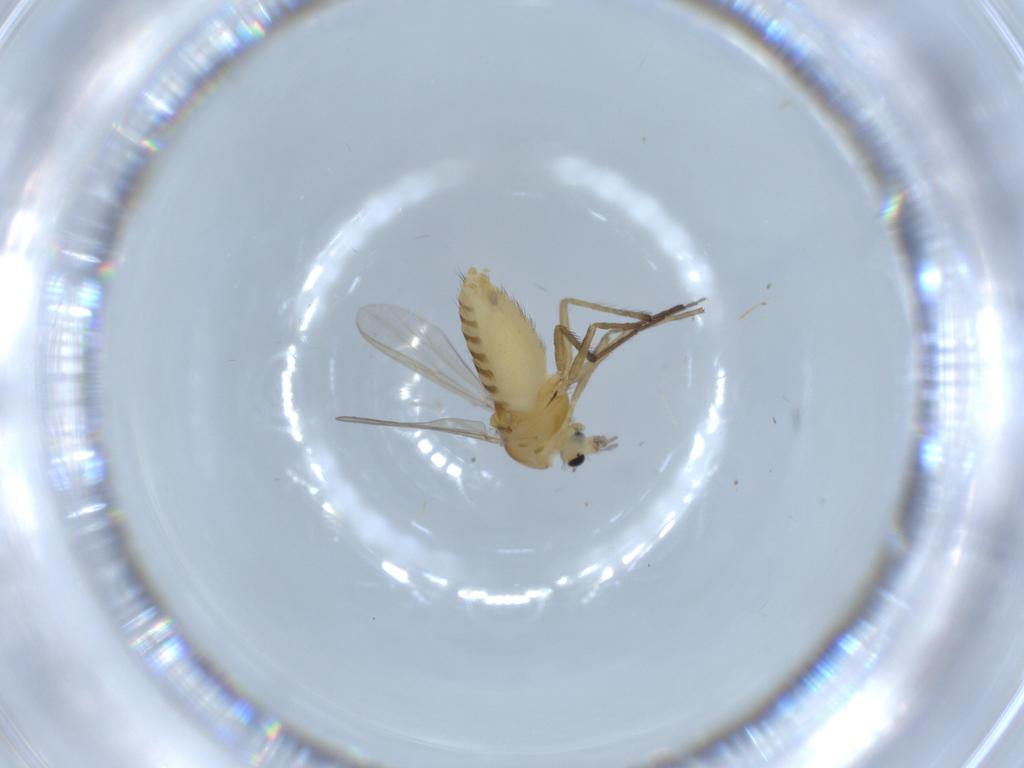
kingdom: Animalia
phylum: Arthropoda
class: Insecta
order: Diptera
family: Chironomidae
